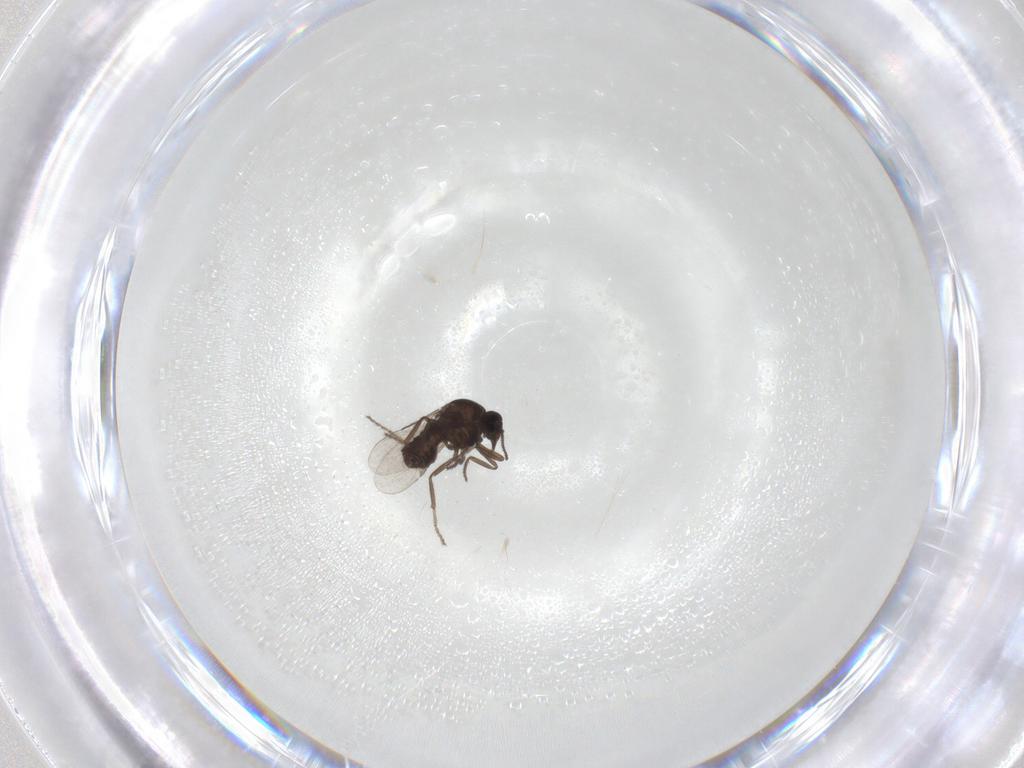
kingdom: Animalia
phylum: Arthropoda
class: Insecta
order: Diptera
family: Ceratopogonidae
